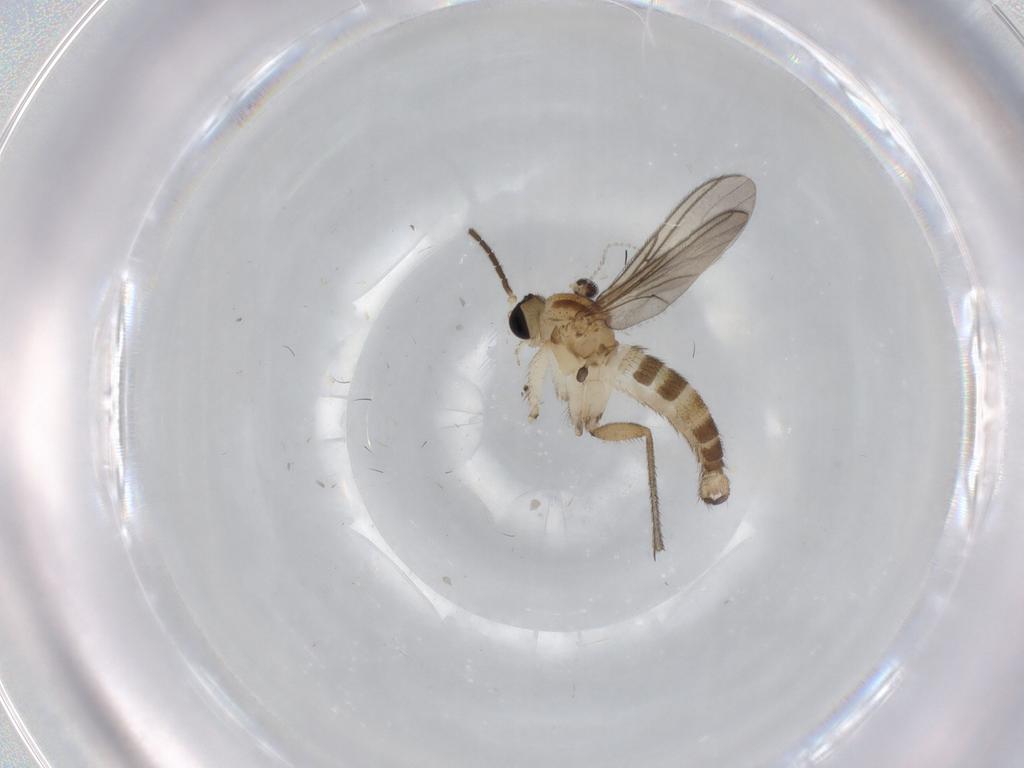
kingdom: Animalia
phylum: Arthropoda
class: Insecta
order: Diptera
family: Sciaridae
